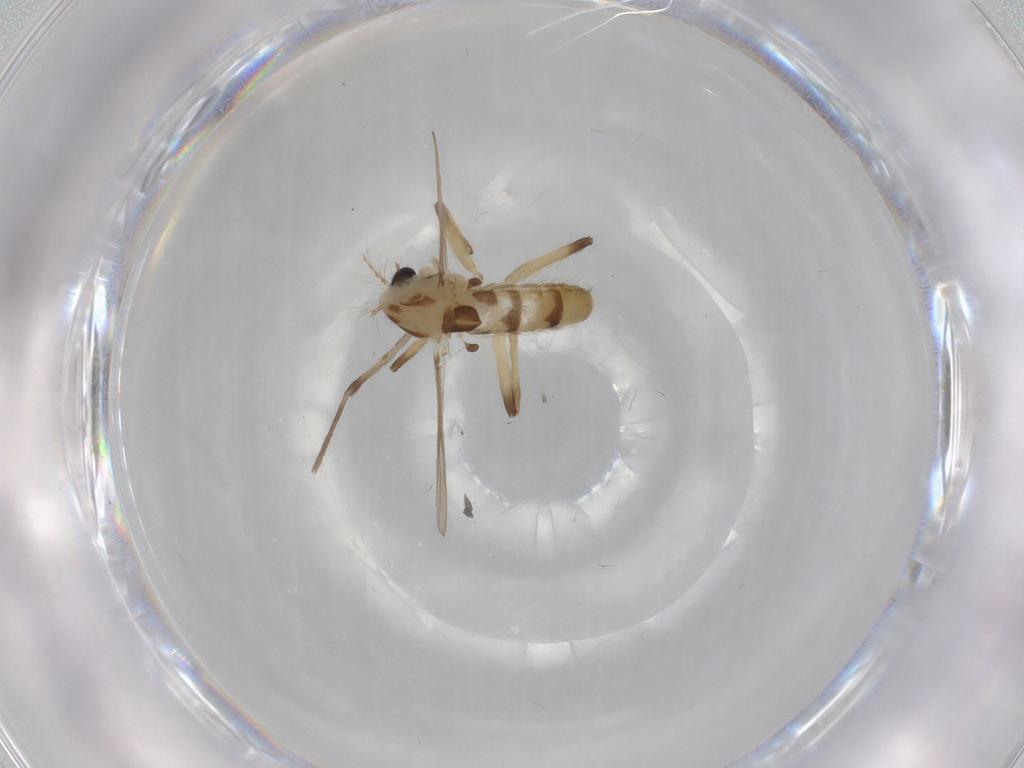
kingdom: Animalia
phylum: Arthropoda
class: Insecta
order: Diptera
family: Chironomidae
